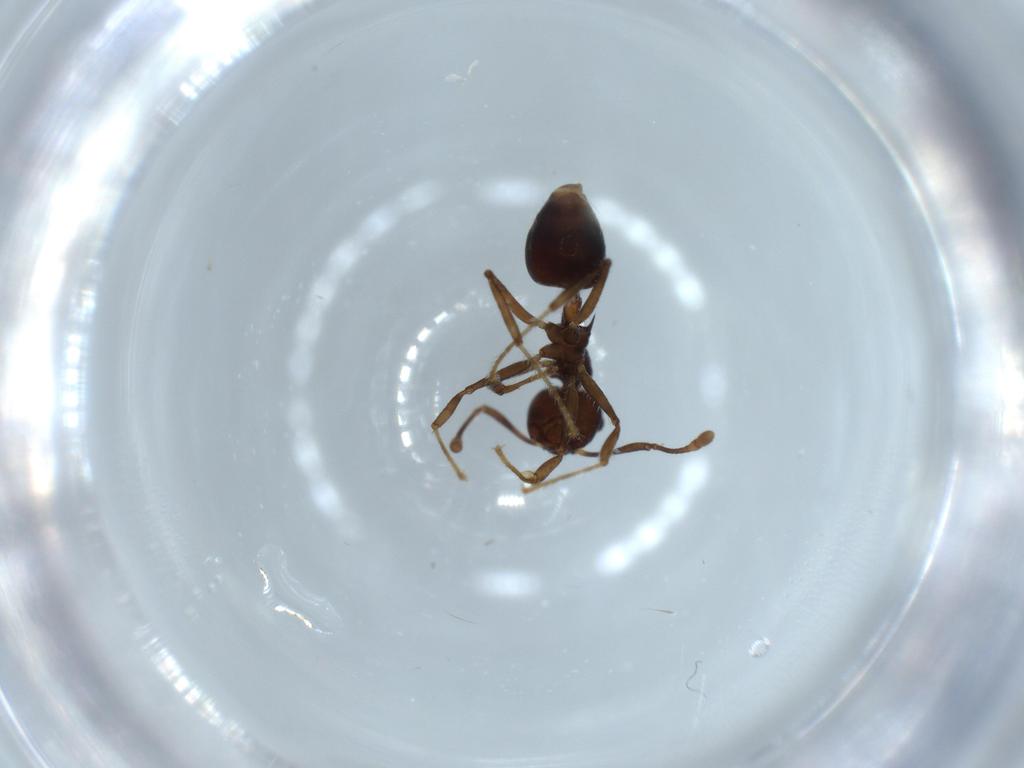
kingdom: Animalia
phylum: Arthropoda
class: Insecta
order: Hymenoptera
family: Formicidae
